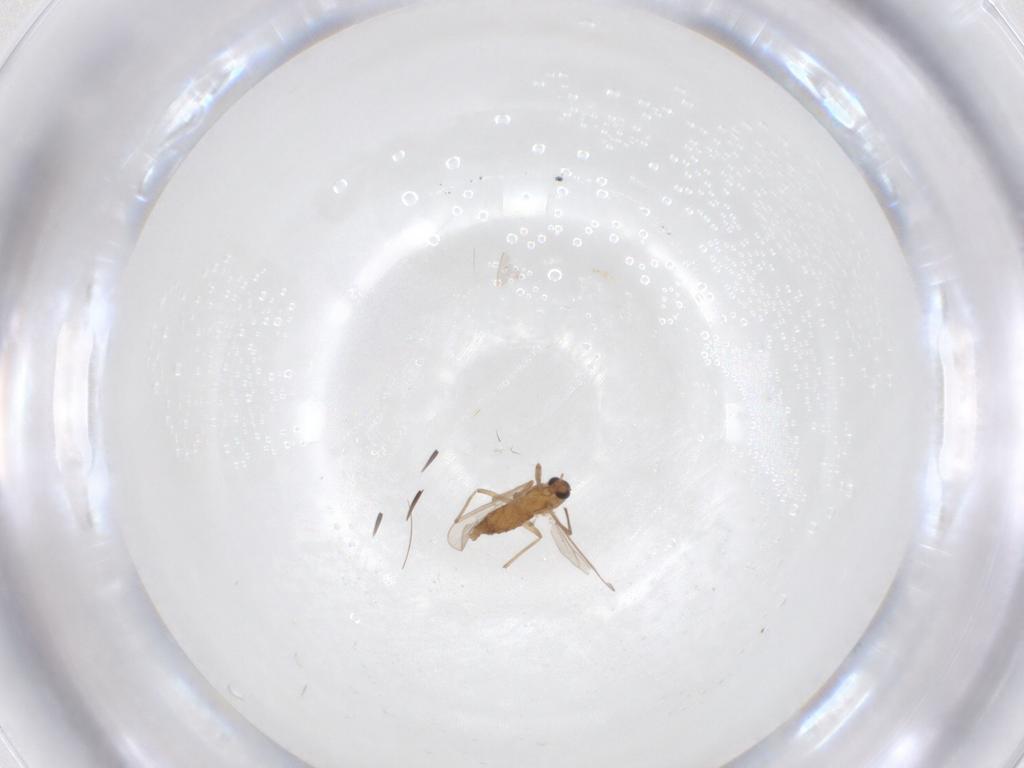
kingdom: Animalia
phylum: Arthropoda
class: Insecta
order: Diptera
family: Chironomidae
